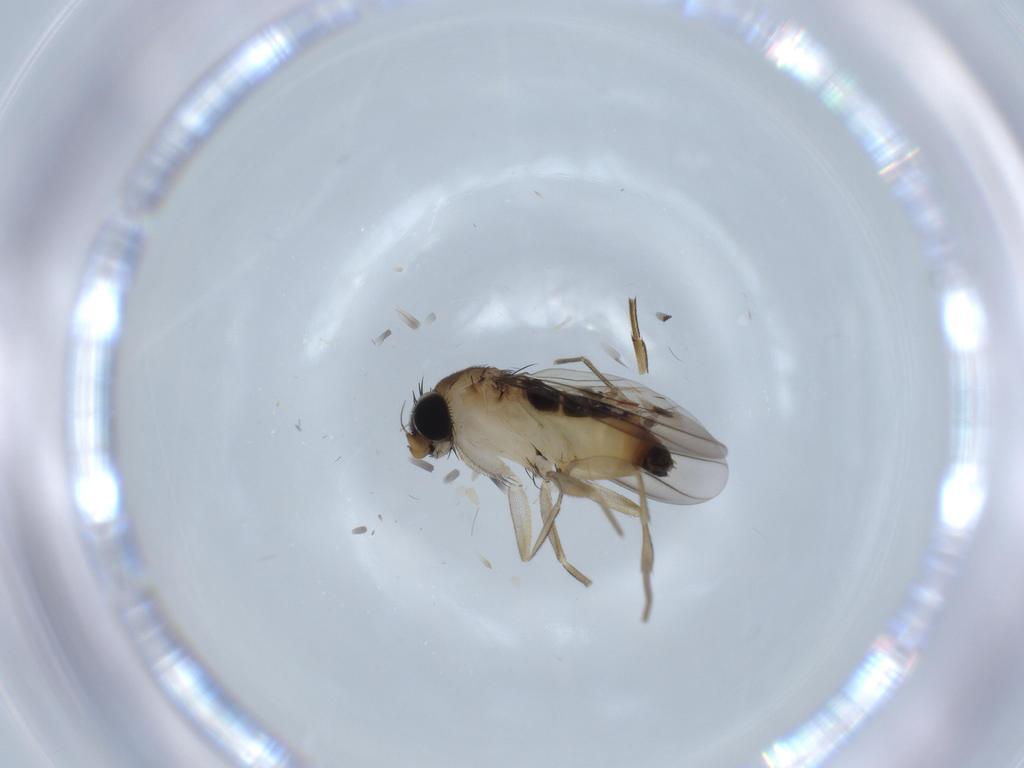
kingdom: Animalia
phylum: Arthropoda
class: Insecta
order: Diptera
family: Phoridae
